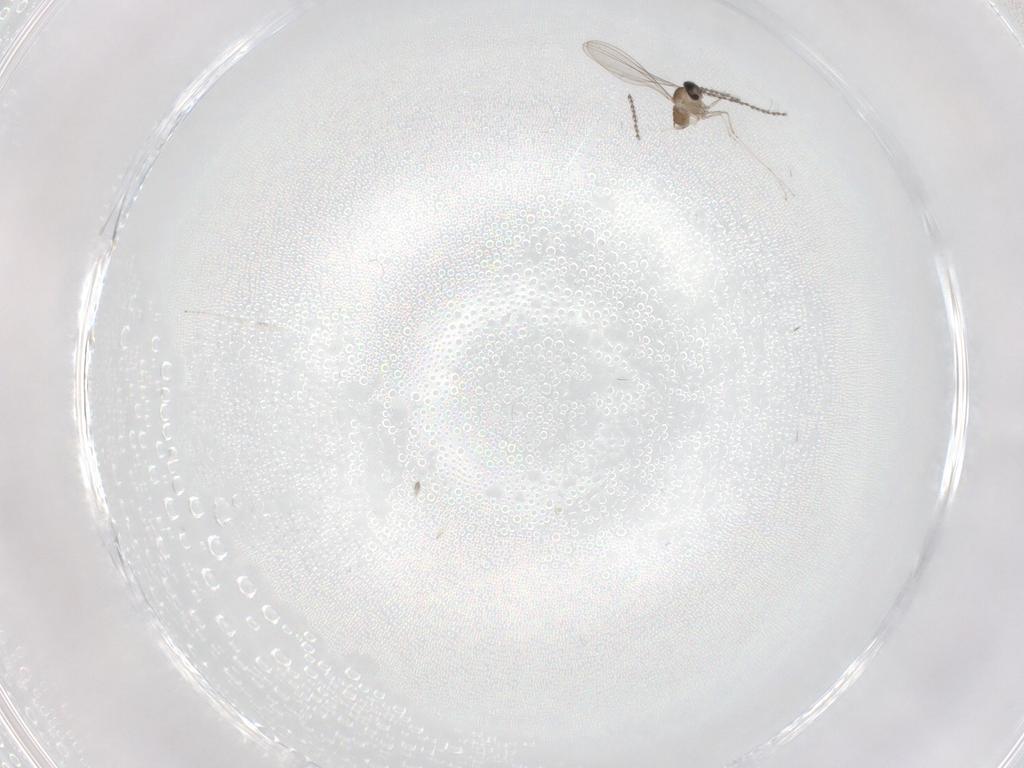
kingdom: Animalia
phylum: Arthropoda
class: Insecta
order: Diptera
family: Cecidomyiidae
